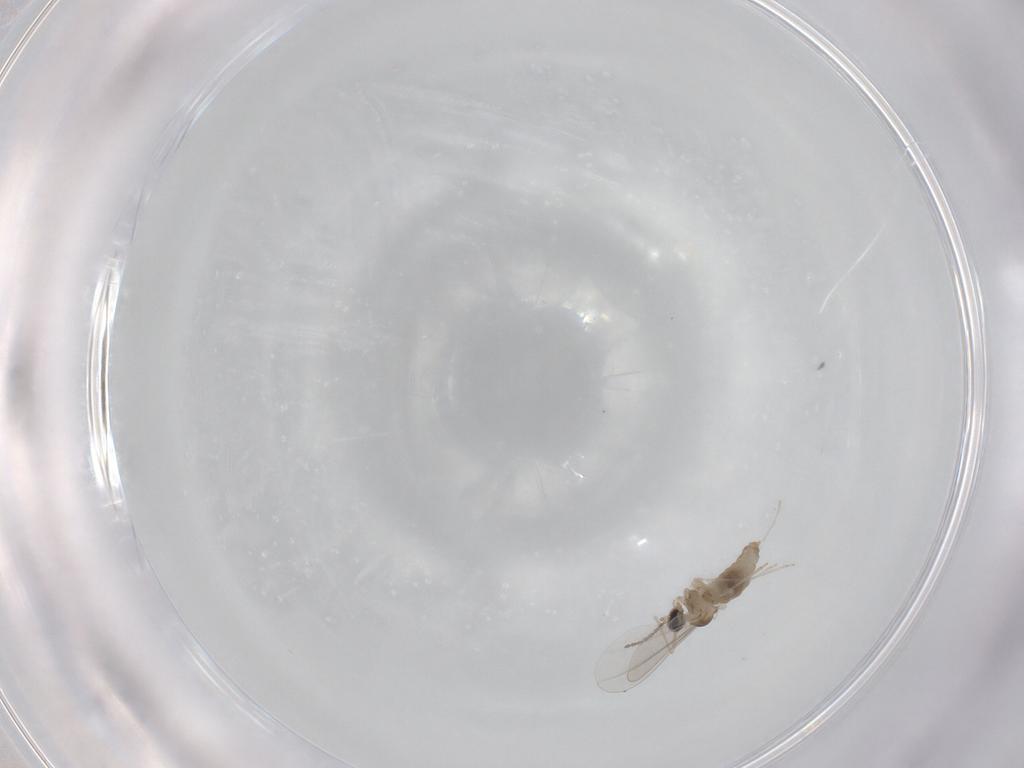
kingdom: Animalia
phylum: Arthropoda
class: Insecta
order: Diptera
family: Cecidomyiidae
